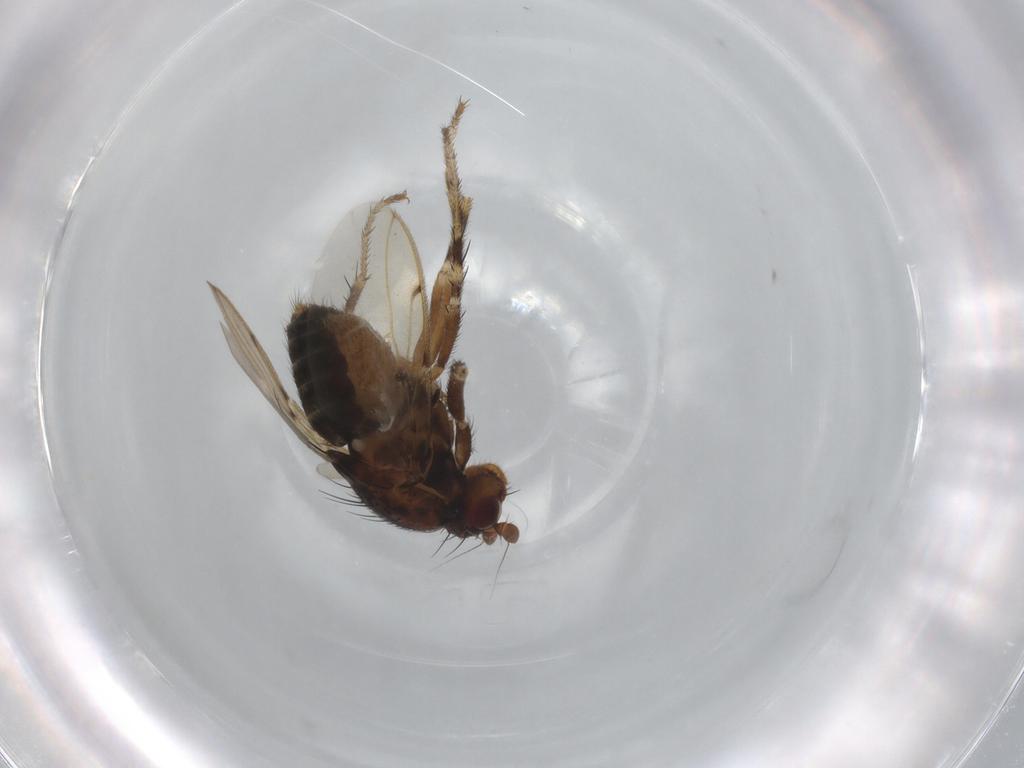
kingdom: Animalia
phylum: Arthropoda
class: Insecta
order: Diptera
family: Sphaeroceridae
